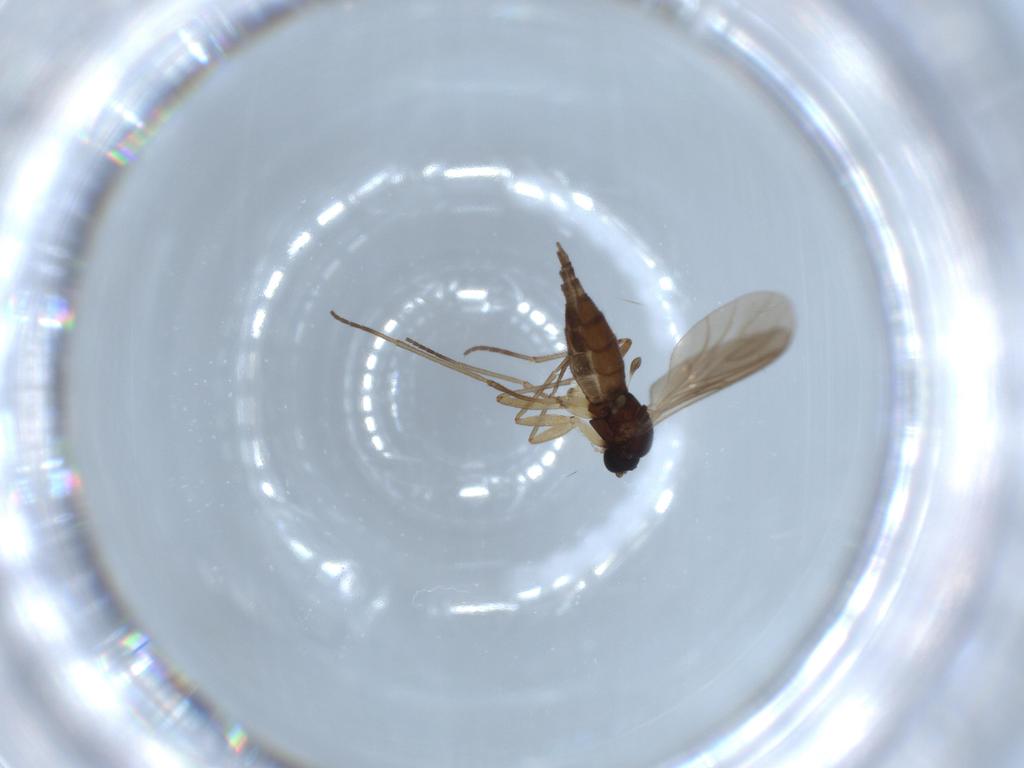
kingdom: Animalia
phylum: Arthropoda
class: Insecta
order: Diptera
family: Sciaridae
